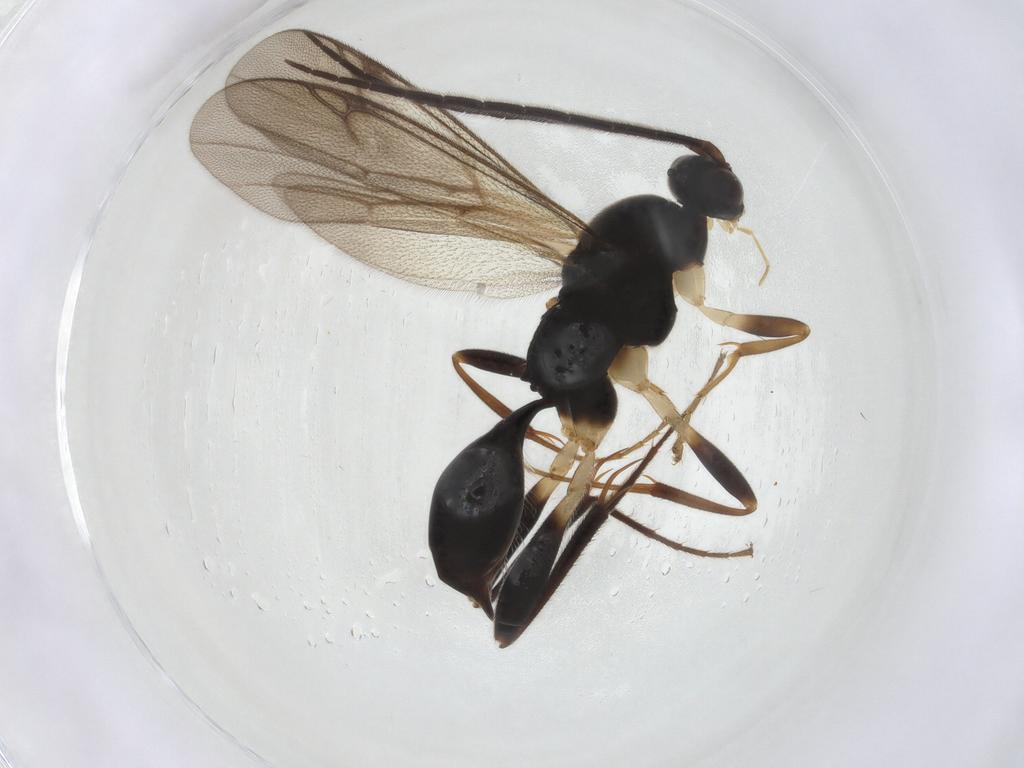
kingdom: Animalia
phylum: Arthropoda
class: Insecta
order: Hymenoptera
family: Proctotrupidae
